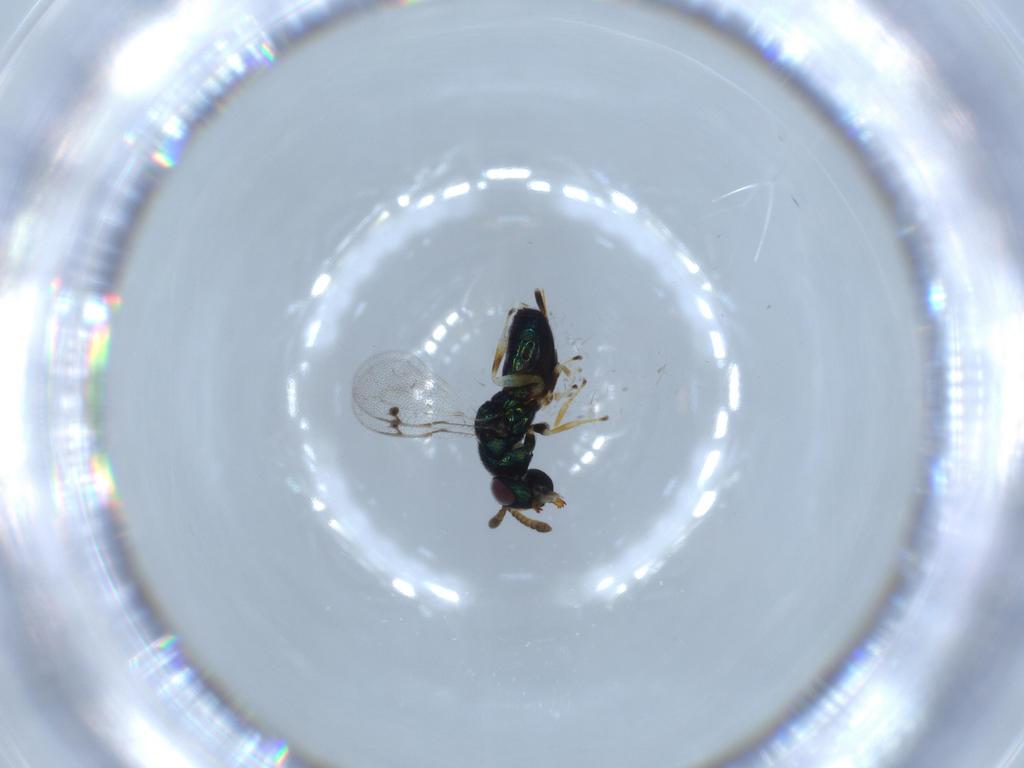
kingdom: Animalia
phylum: Arthropoda
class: Insecta
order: Hymenoptera
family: Pirenidae
